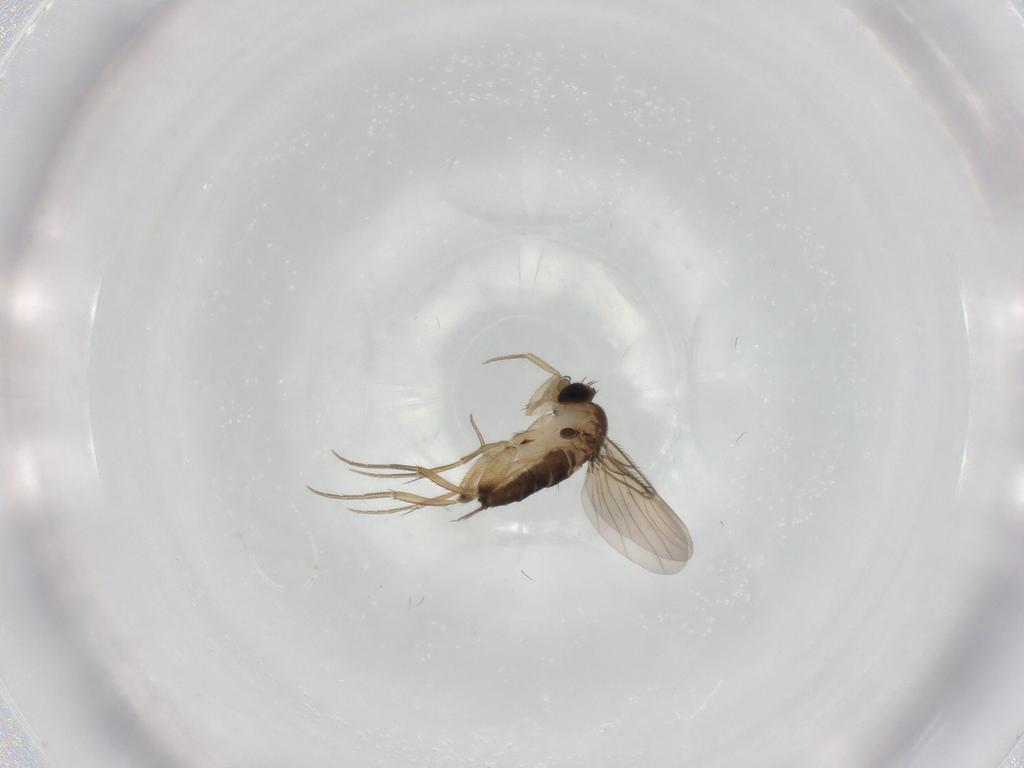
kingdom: Animalia
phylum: Arthropoda
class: Insecta
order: Diptera
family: Phoridae
